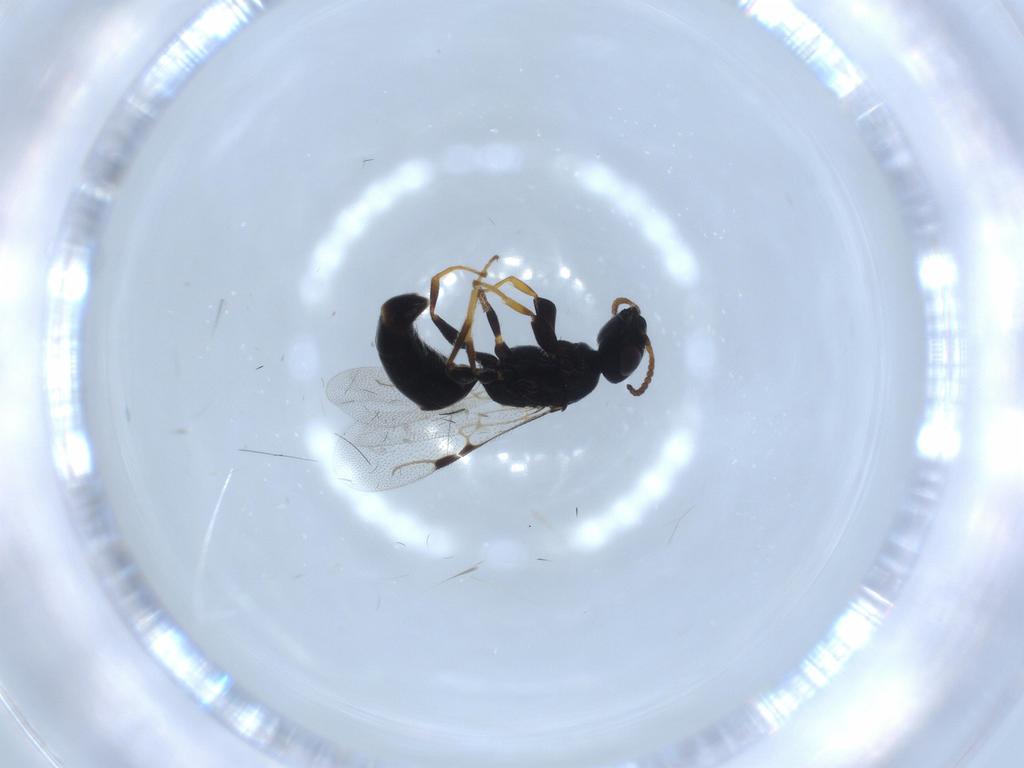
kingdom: Animalia
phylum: Arthropoda
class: Insecta
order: Hymenoptera
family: Bethylidae
